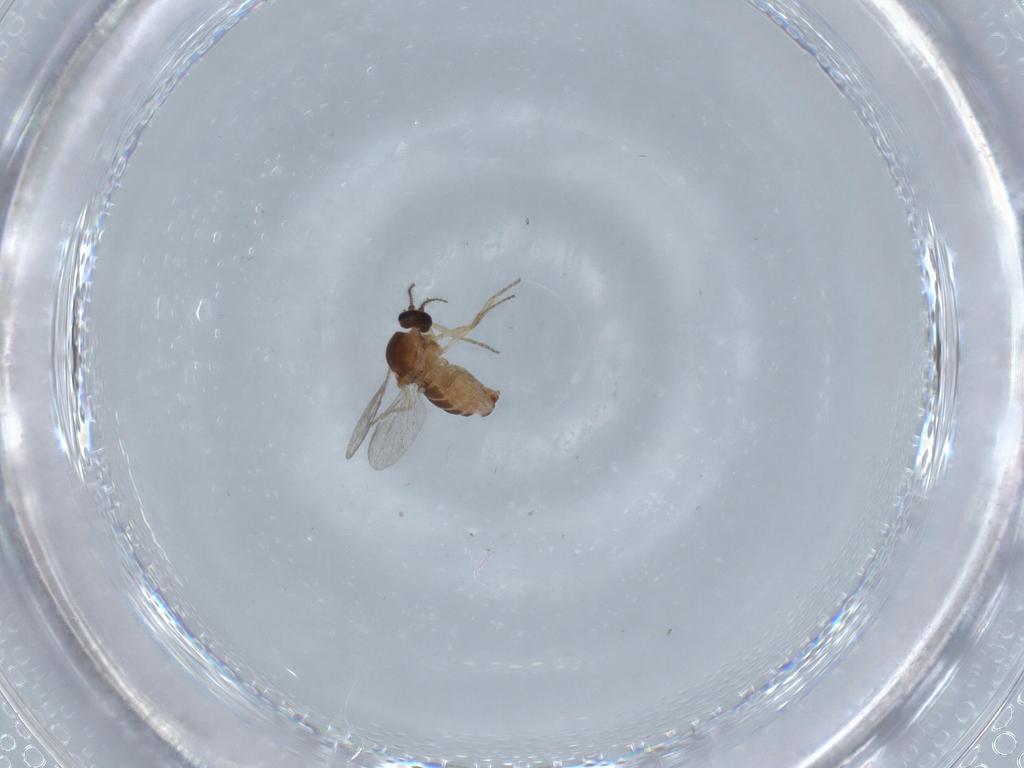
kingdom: Animalia
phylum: Arthropoda
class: Insecta
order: Diptera
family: Ceratopogonidae
